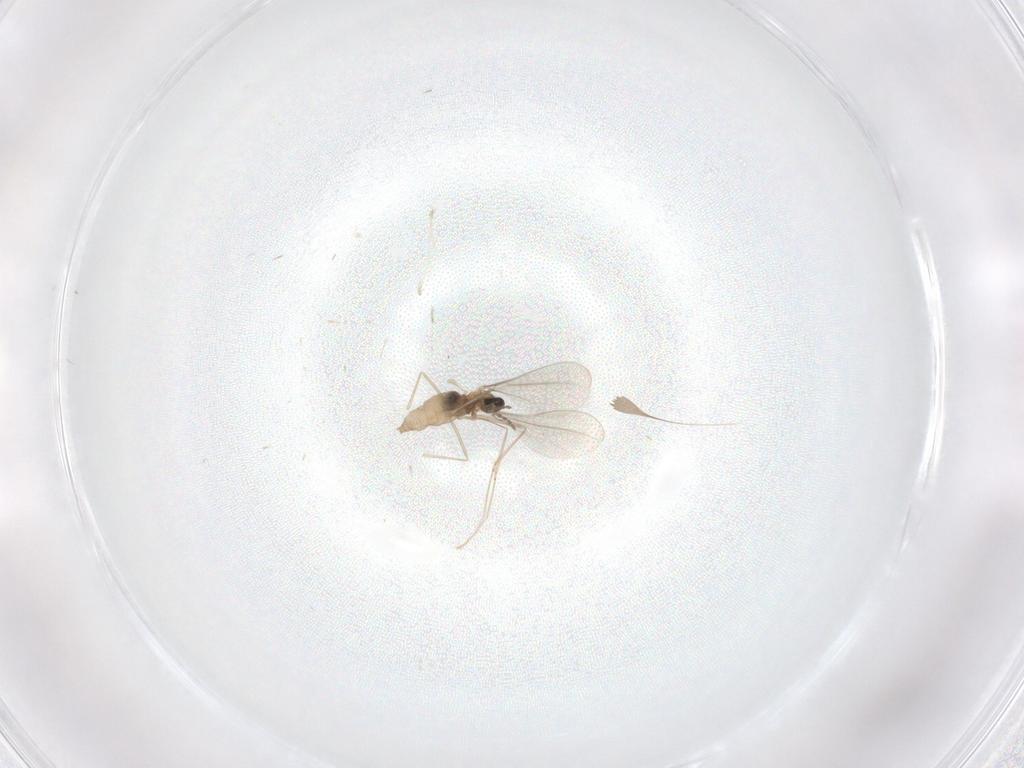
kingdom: Animalia
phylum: Arthropoda
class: Insecta
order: Diptera
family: Cecidomyiidae
